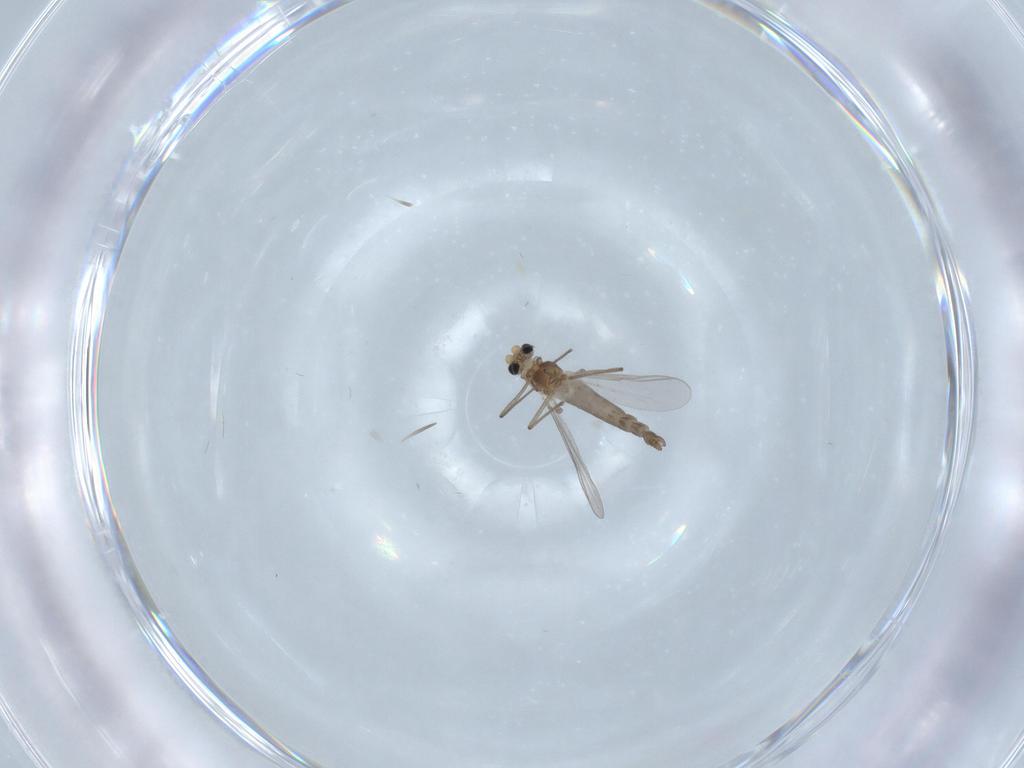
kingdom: Animalia
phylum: Arthropoda
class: Insecta
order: Diptera
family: Chironomidae
